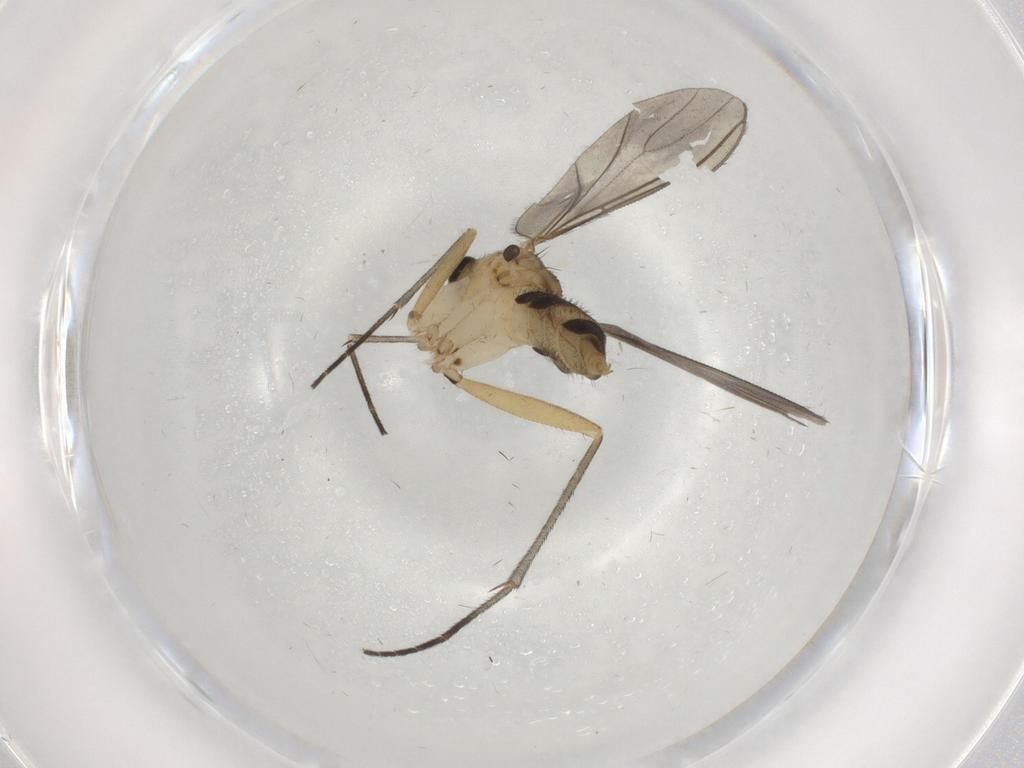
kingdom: Animalia
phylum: Arthropoda
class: Insecta
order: Diptera
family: Sciaridae
